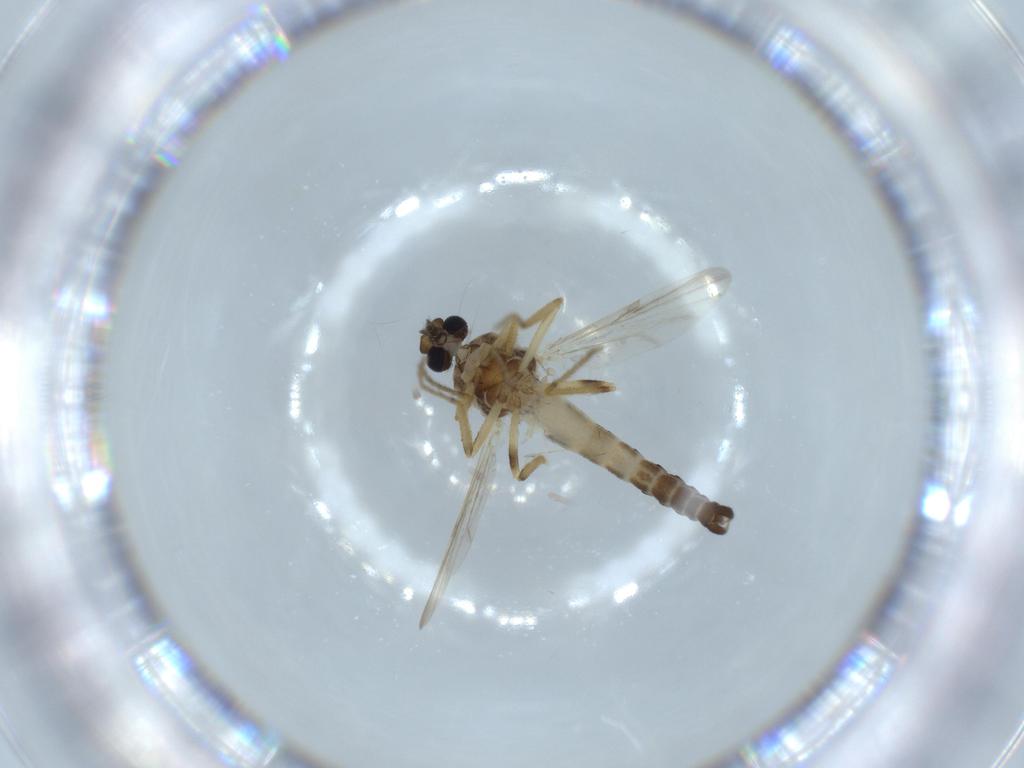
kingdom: Animalia
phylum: Arthropoda
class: Insecta
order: Diptera
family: Ceratopogonidae
